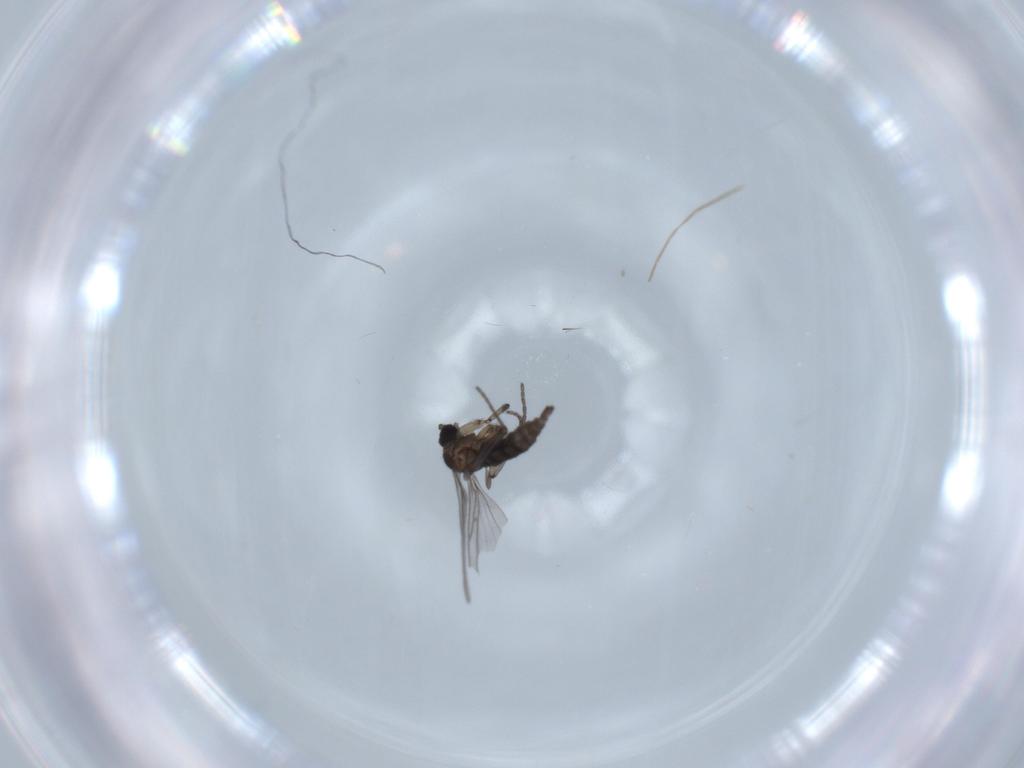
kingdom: Animalia
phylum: Arthropoda
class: Insecta
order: Diptera
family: Chironomidae
